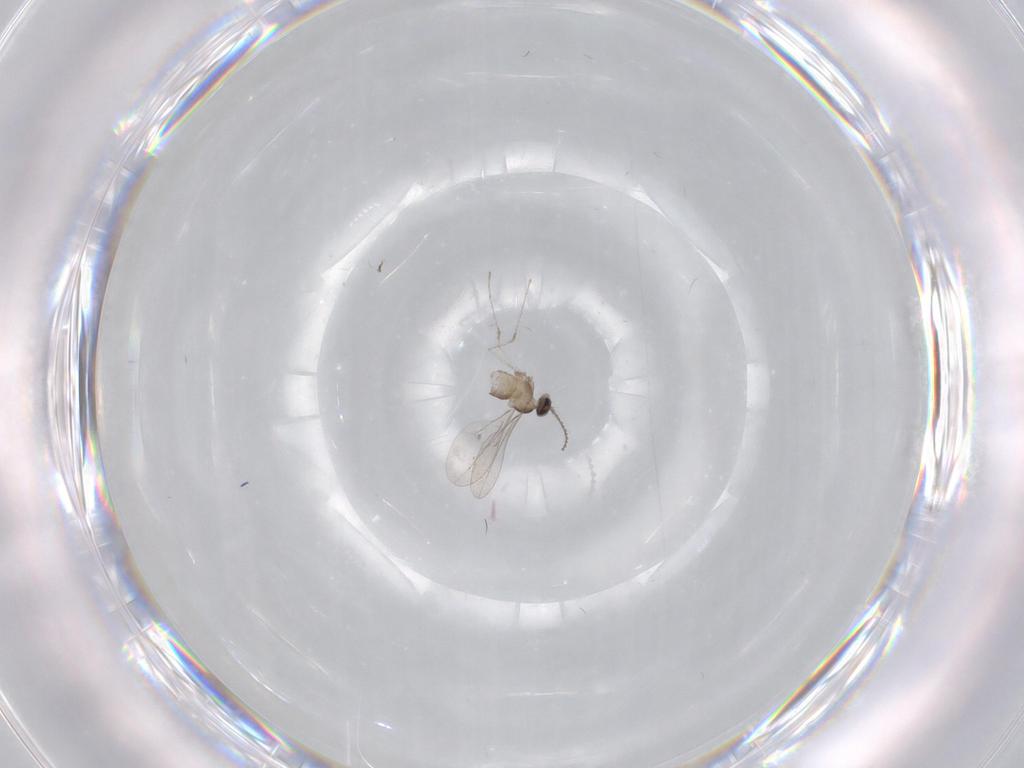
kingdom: Animalia
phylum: Arthropoda
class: Insecta
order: Diptera
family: Cecidomyiidae
